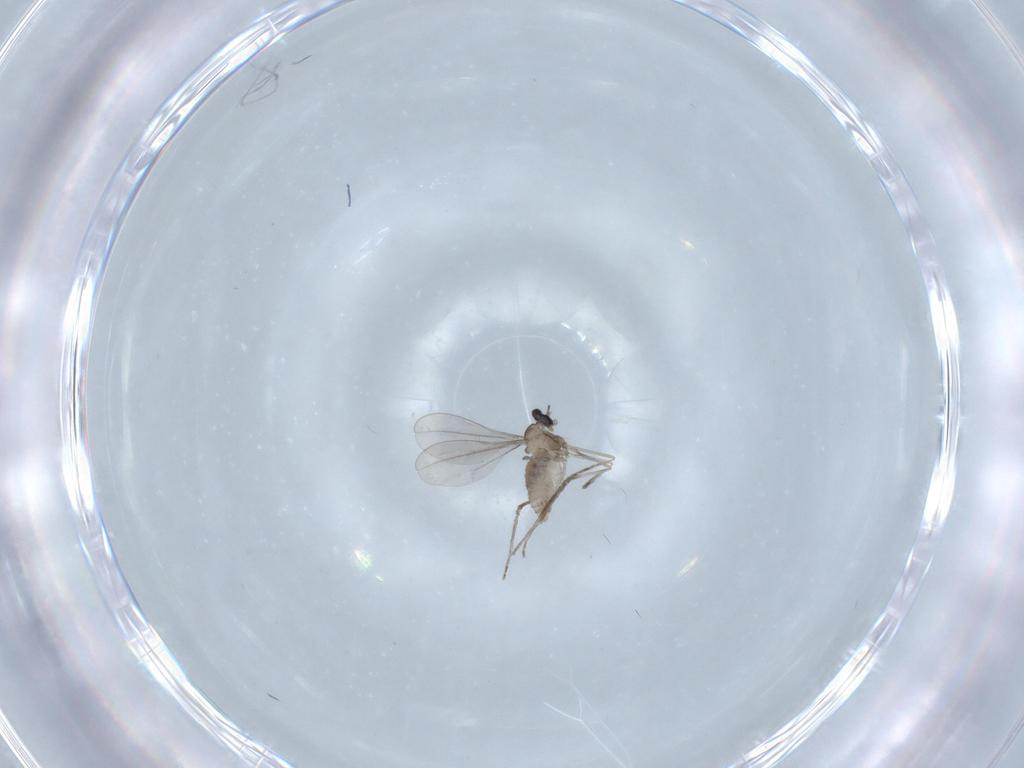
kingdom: Animalia
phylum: Arthropoda
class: Insecta
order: Diptera
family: Cecidomyiidae
